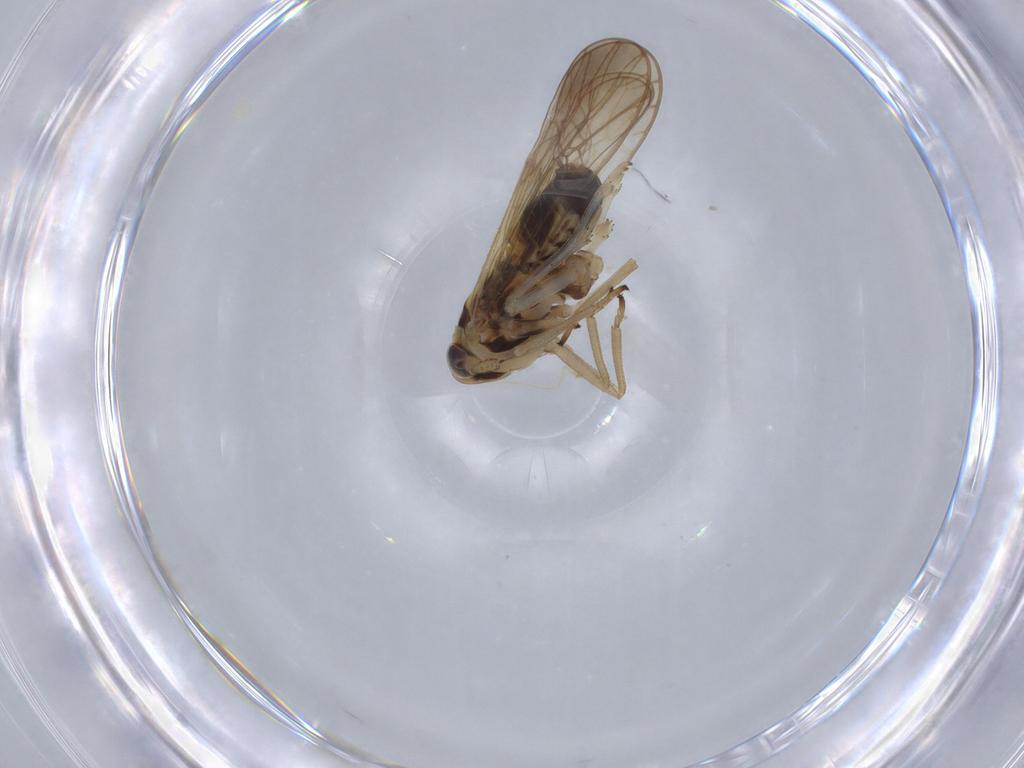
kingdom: Animalia
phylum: Arthropoda
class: Insecta
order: Hemiptera
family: Delphacidae
